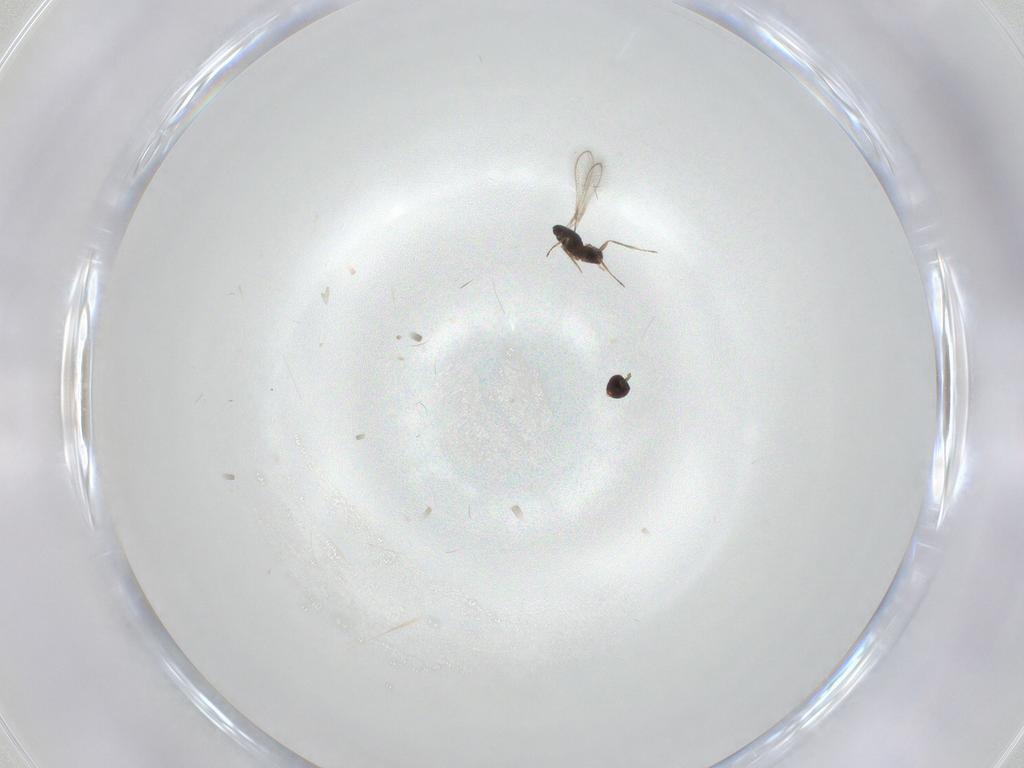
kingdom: Animalia
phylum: Arthropoda
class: Insecta
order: Hymenoptera
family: Mymaridae
